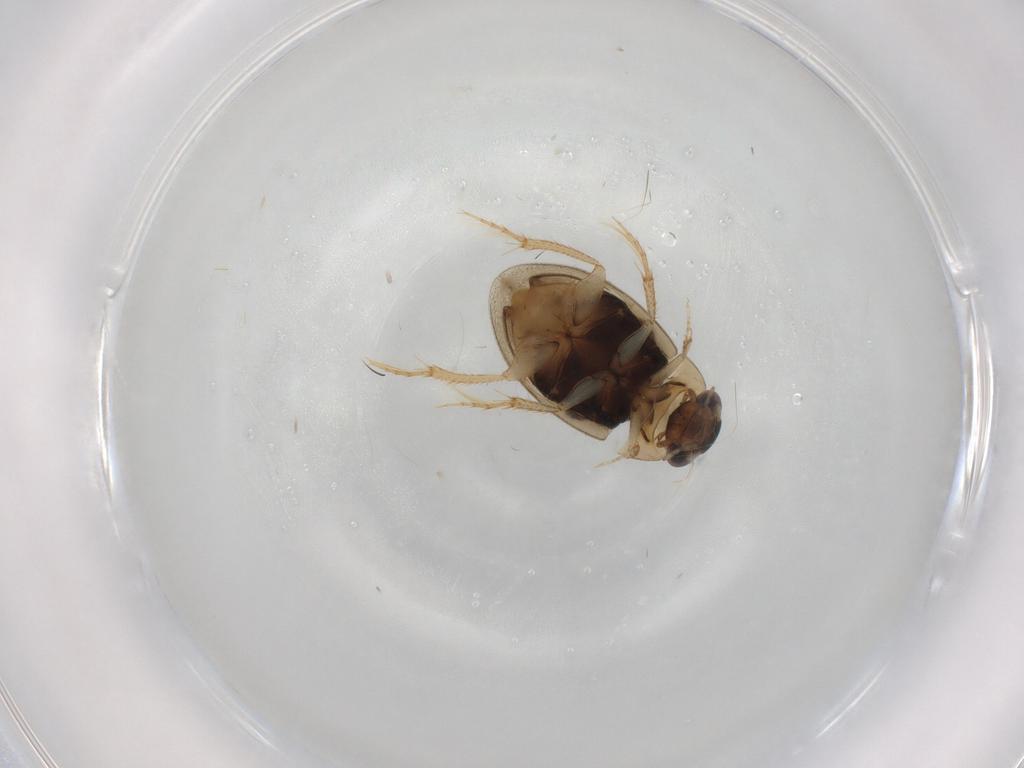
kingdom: Animalia
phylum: Arthropoda
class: Insecta
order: Coleoptera
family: Hydrophilidae
